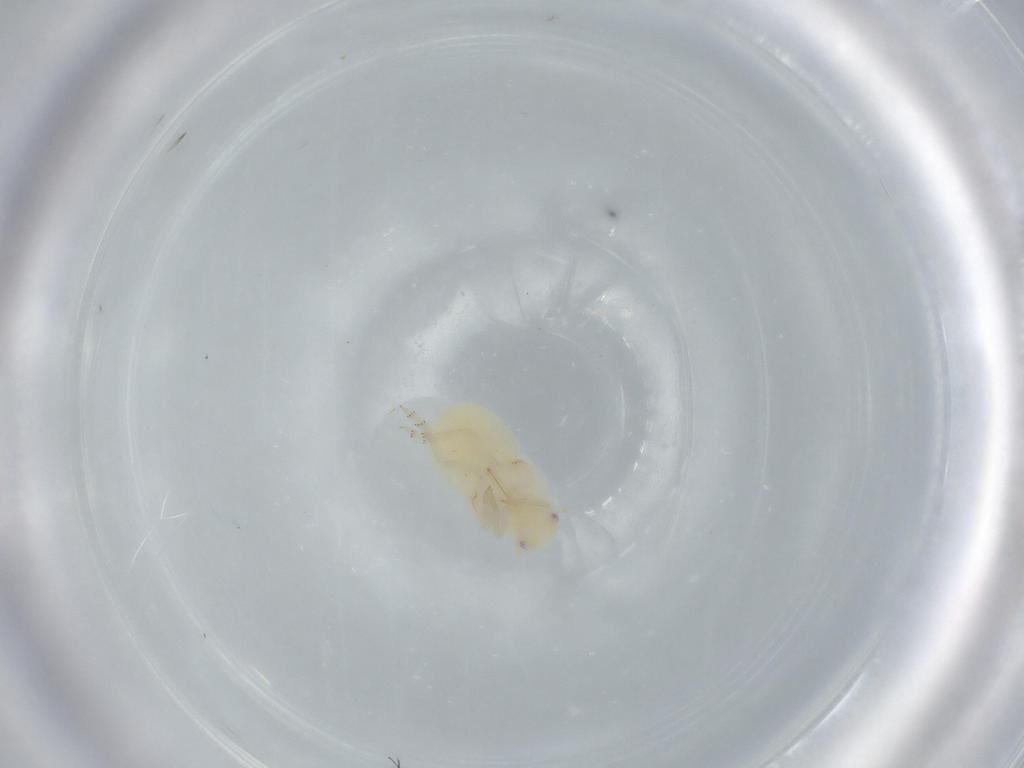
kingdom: Animalia
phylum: Arthropoda
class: Insecta
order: Hemiptera
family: Flatidae
